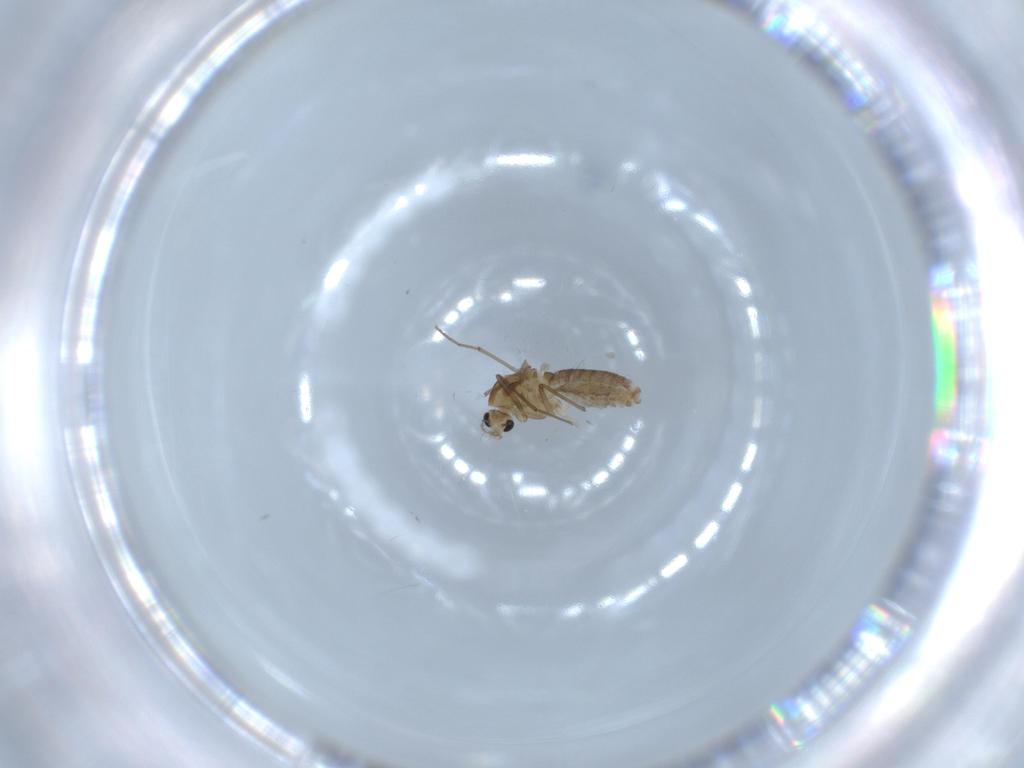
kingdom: Animalia
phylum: Arthropoda
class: Insecta
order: Diptera
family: Chironomidae
